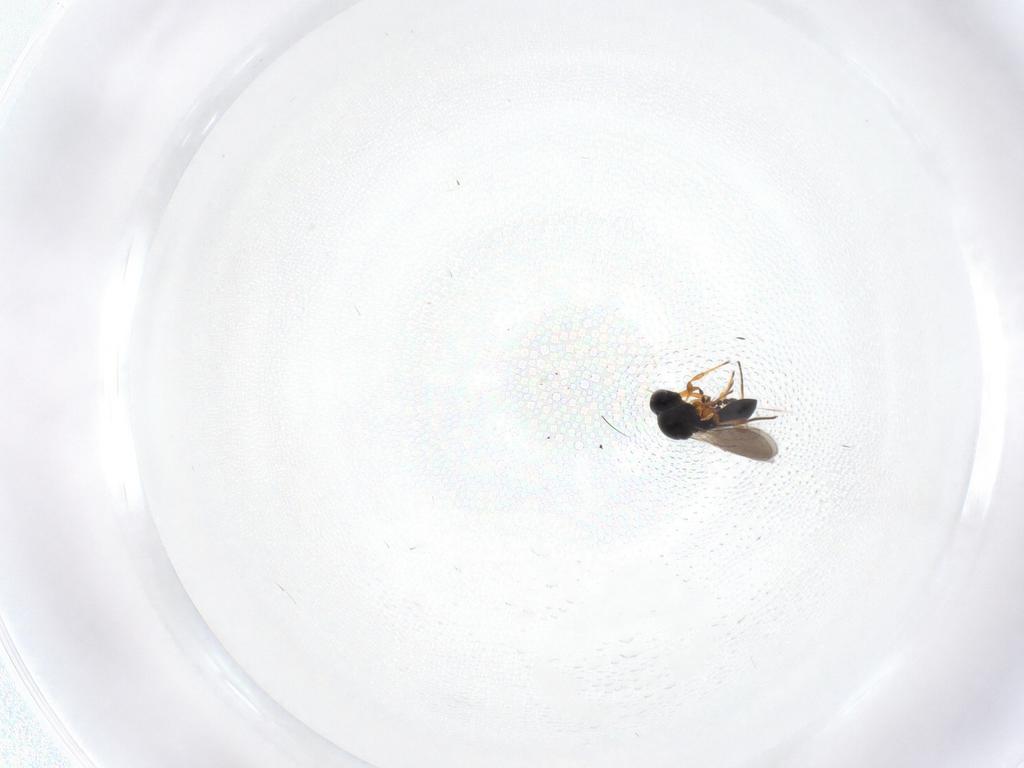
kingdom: Animalia
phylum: Arthropoda
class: Insecta
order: Hymenoptera
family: Platygastridae
